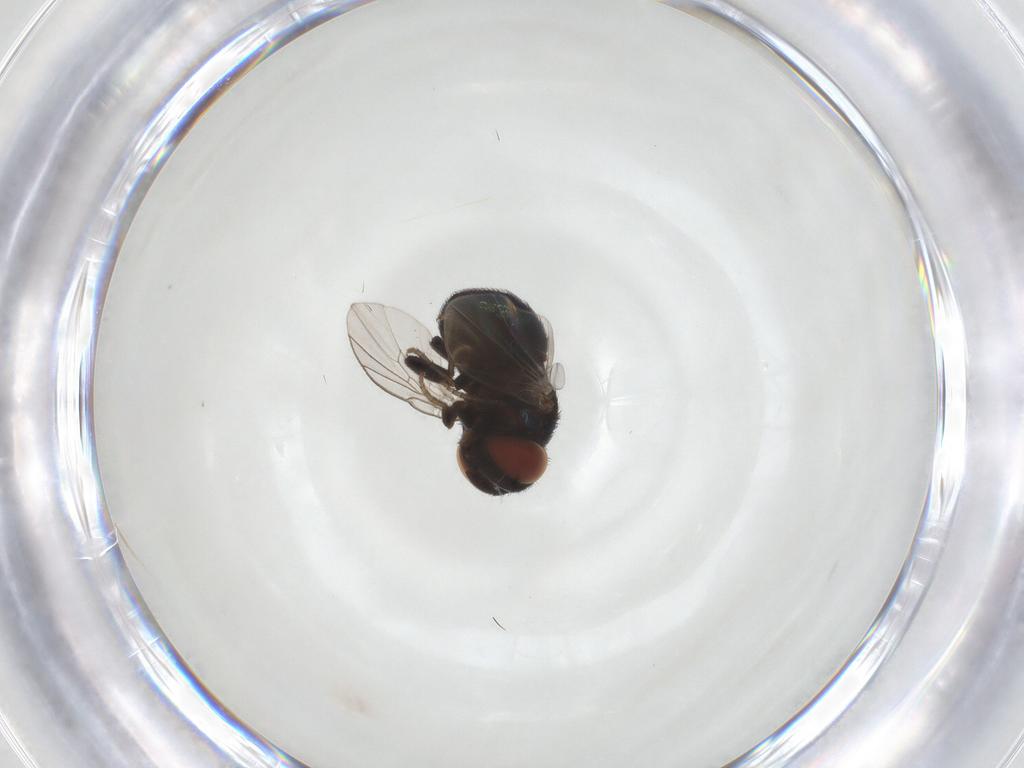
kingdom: Animalia
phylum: Arthropoda
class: Insecta
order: Diptera
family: Cryptochetidae
